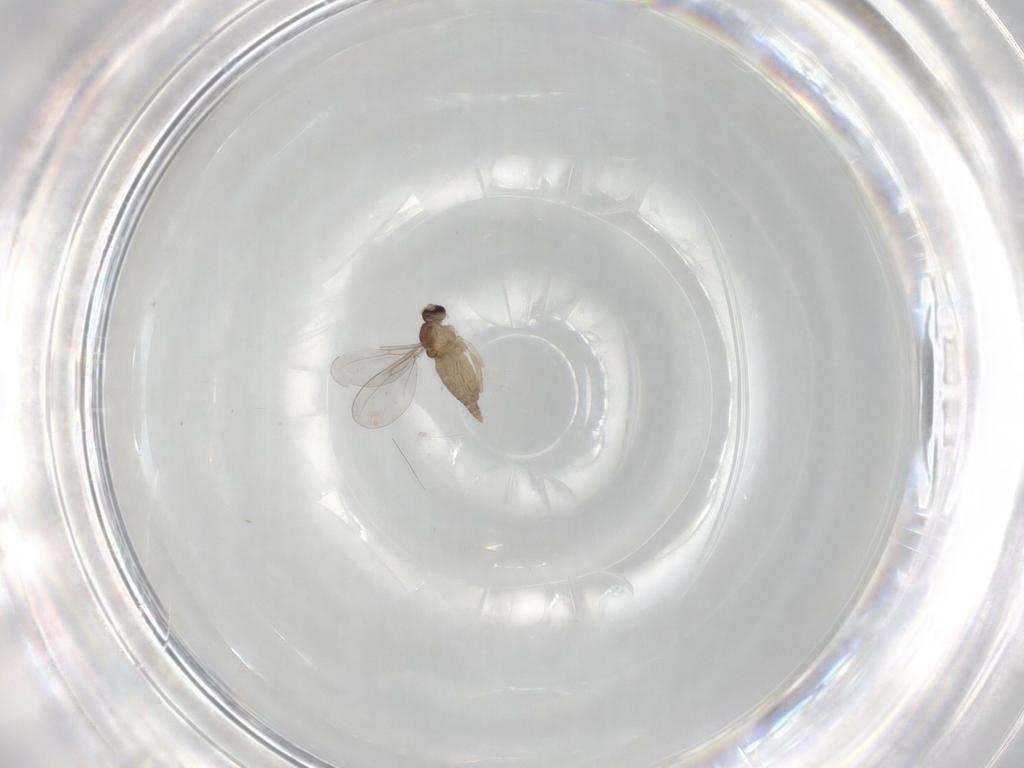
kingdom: Animalia
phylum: Arthropoda
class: Insecta
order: Diptera
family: Cecidomyiidae
